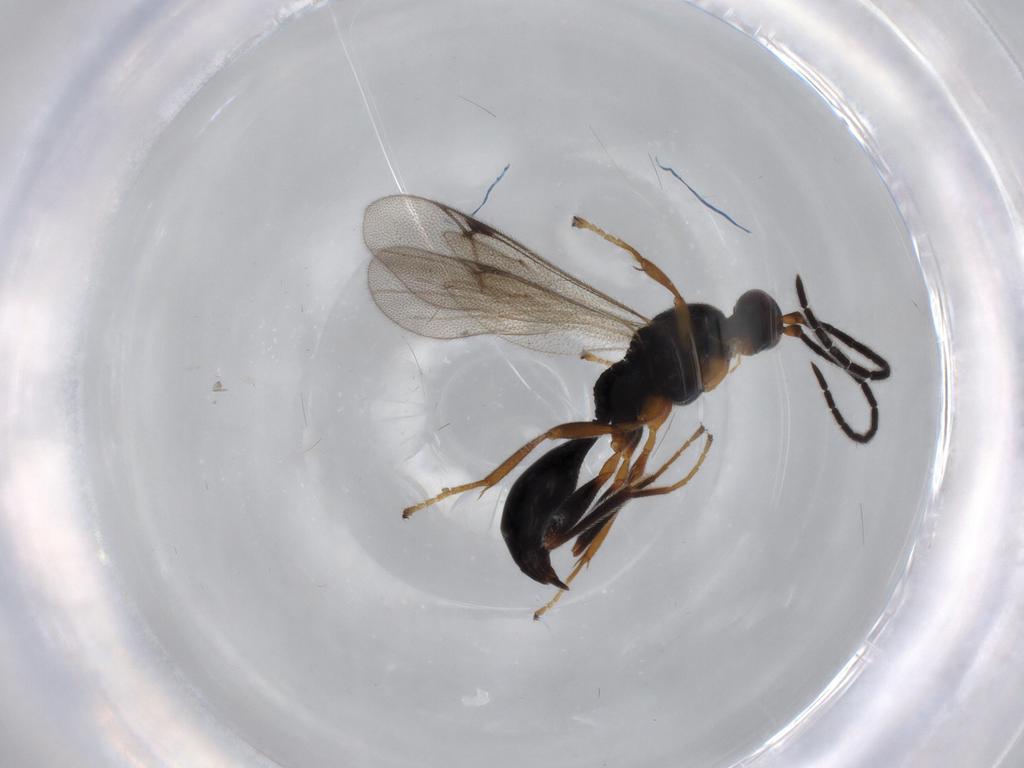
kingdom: Animalia
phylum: Arthropoda
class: Insecta
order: Hymenoptera
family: Proctotrupidae
